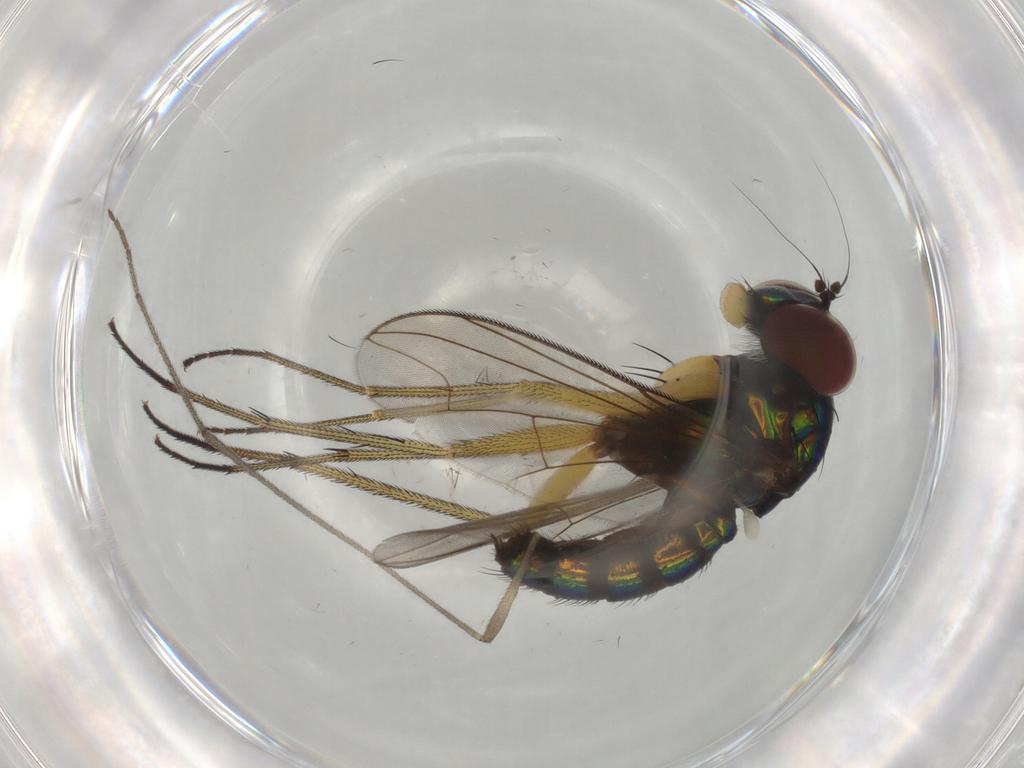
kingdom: Animalia
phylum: Arthropoda
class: Insecta
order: Diptera
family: Dolichopodidae
